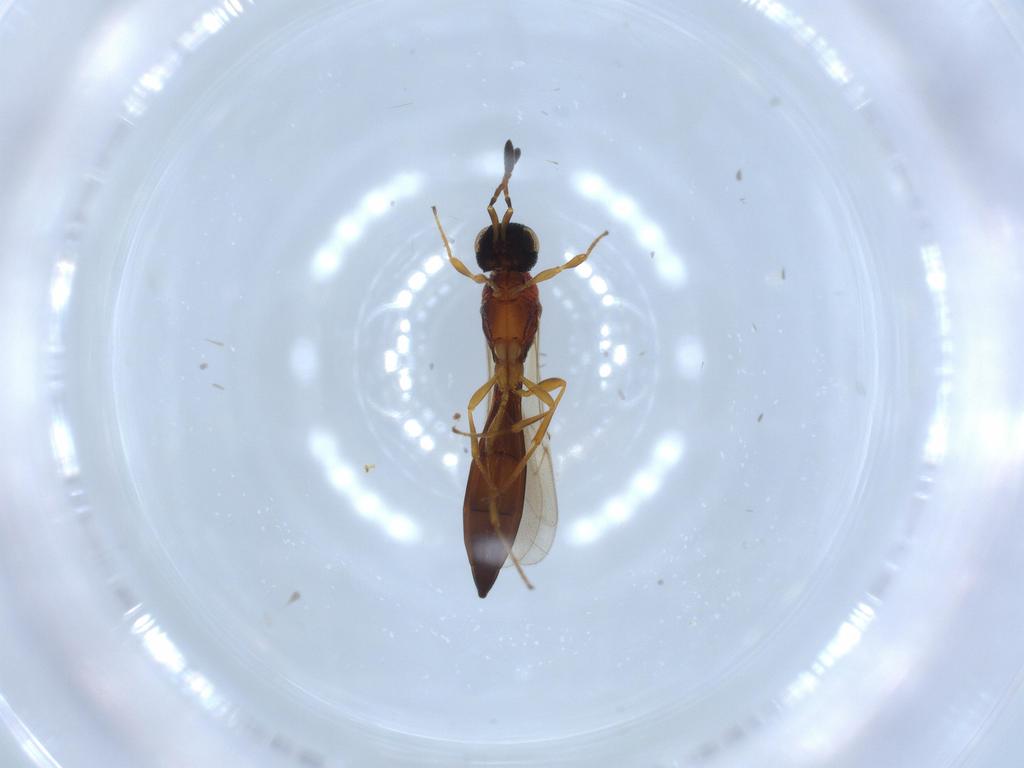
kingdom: Animalia
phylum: Arthropoda
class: Insecta
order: Hymenoptera
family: Scelionidae
